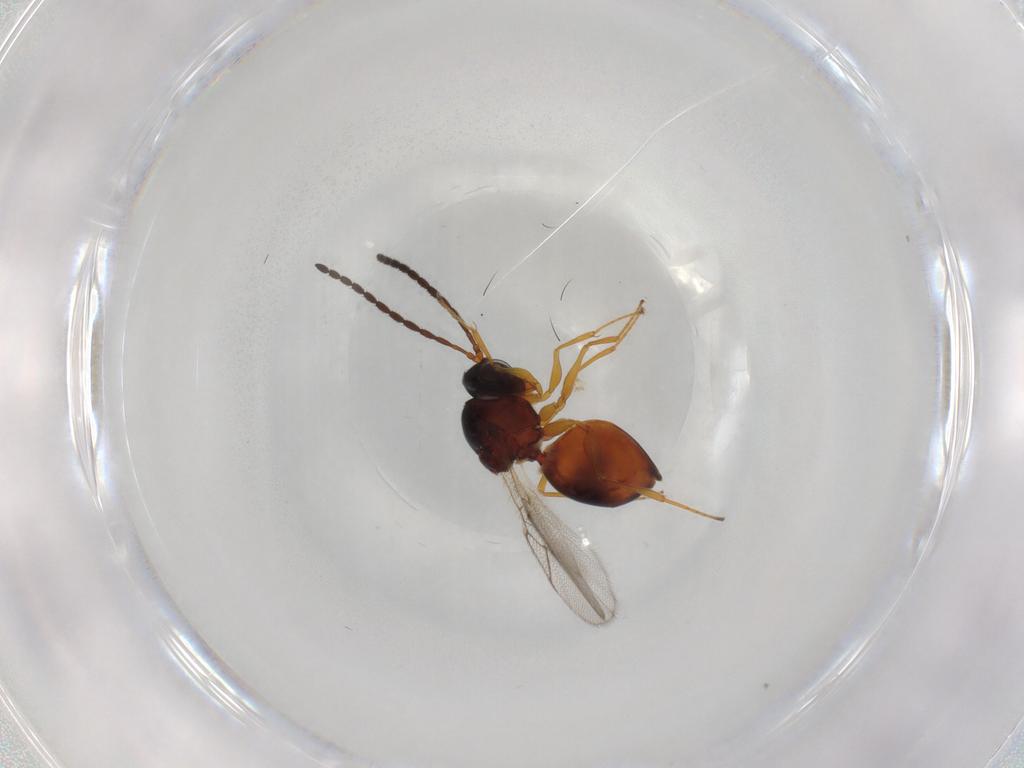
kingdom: Animalia
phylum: Arthropoda
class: Insecta
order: Hymenoptera
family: Figitidae
